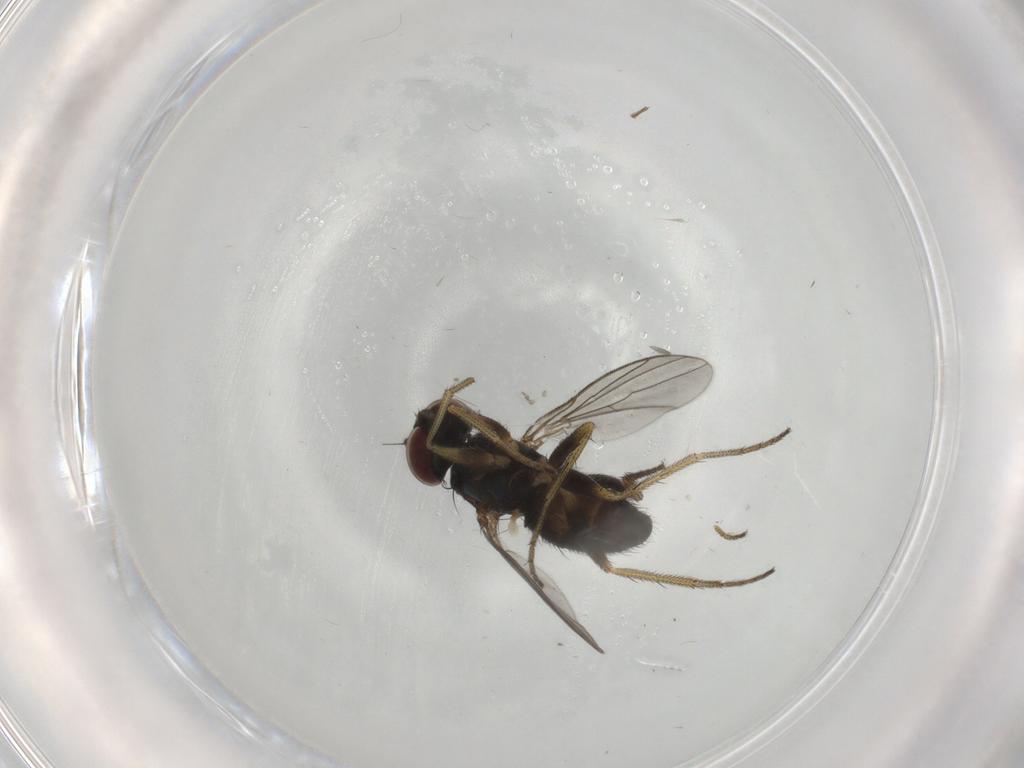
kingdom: Animalia
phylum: Arthropoda
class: Insecta
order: Diptera
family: Dolichopodidae
